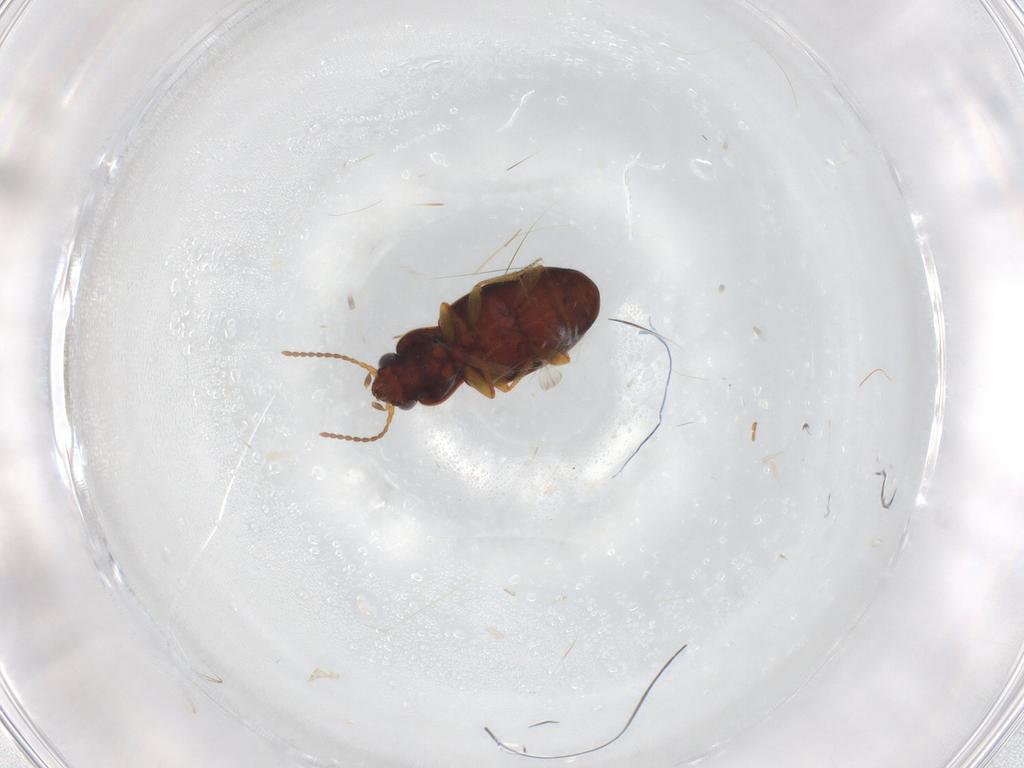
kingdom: Animalia
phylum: Arthropoda
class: Insecta
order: Coleoptera
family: Carabidae
